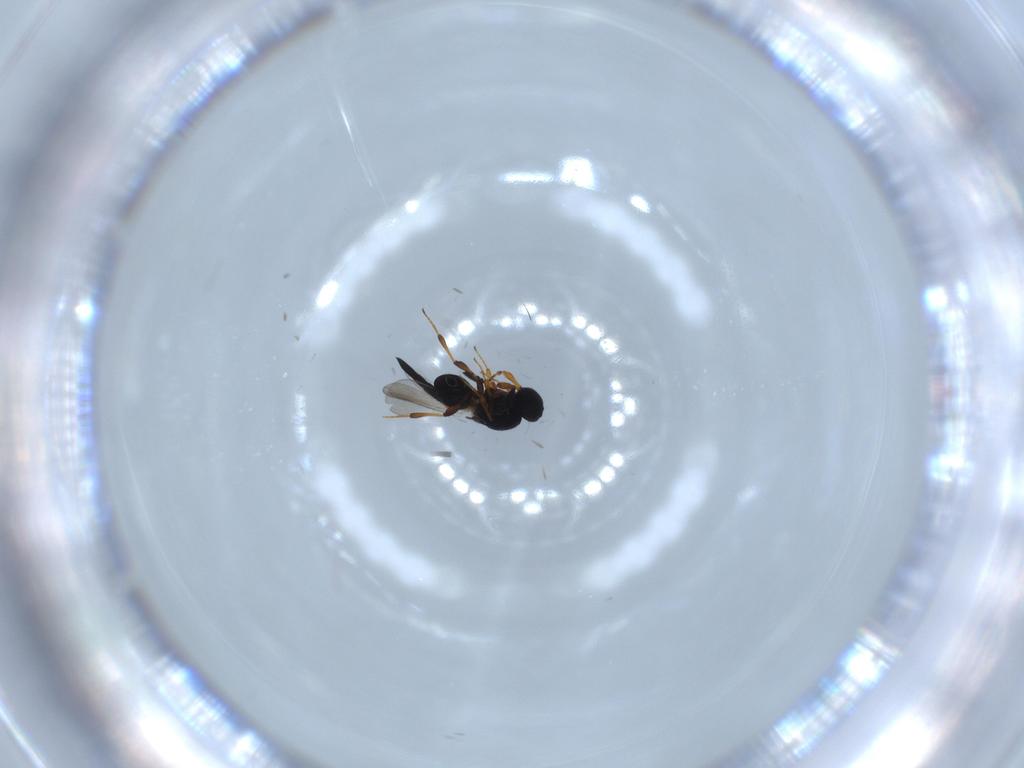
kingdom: Animalia
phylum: Arthropoda
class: Insecta
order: Hymenoptera
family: Platygastridae
